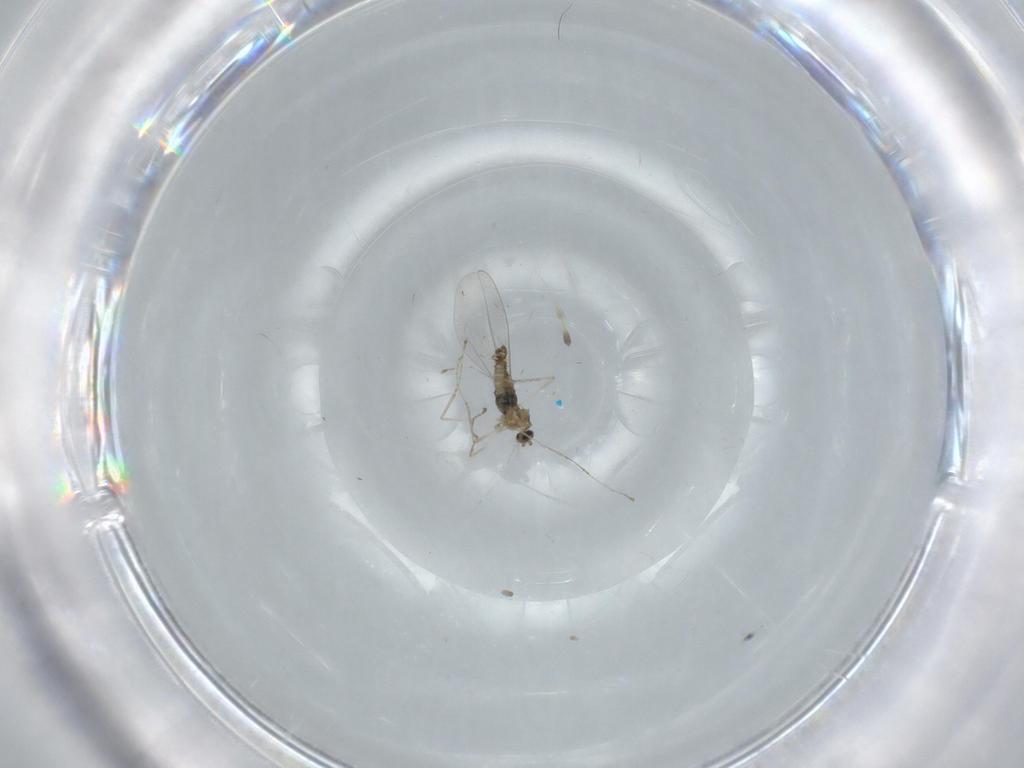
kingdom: Animalia
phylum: Arthropoda
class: Insecta
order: Diptera
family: Cecidomyiidae
